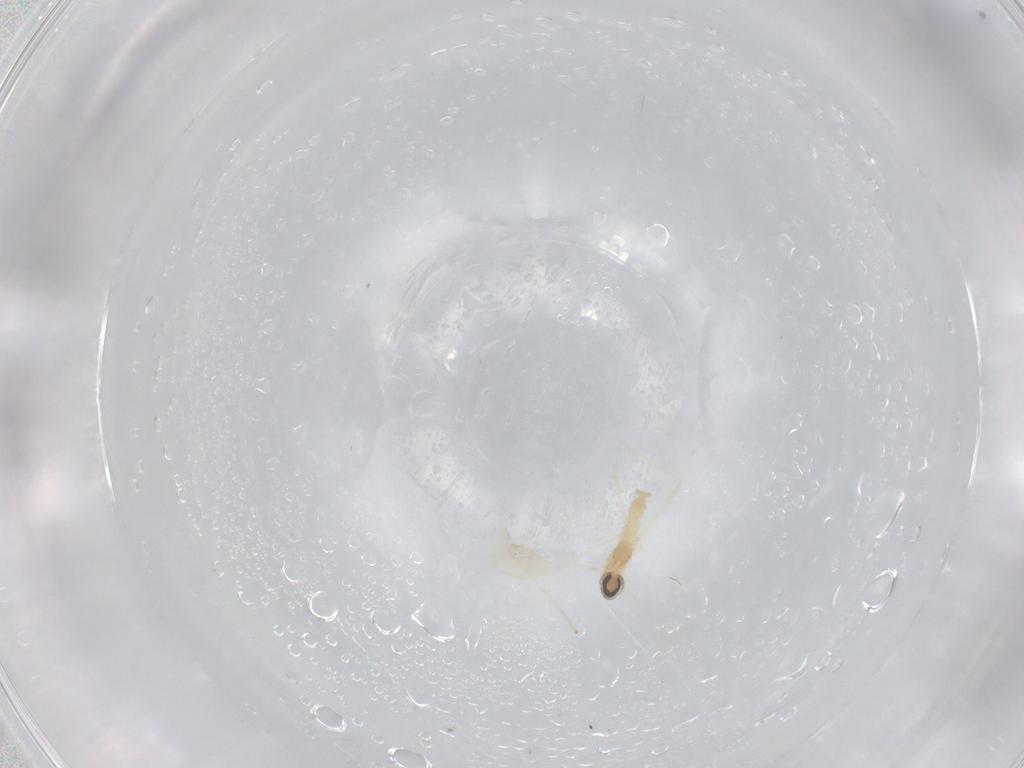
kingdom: Animalia
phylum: Arthropoda
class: Insecta
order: Diptera
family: Cecidomyiidae
